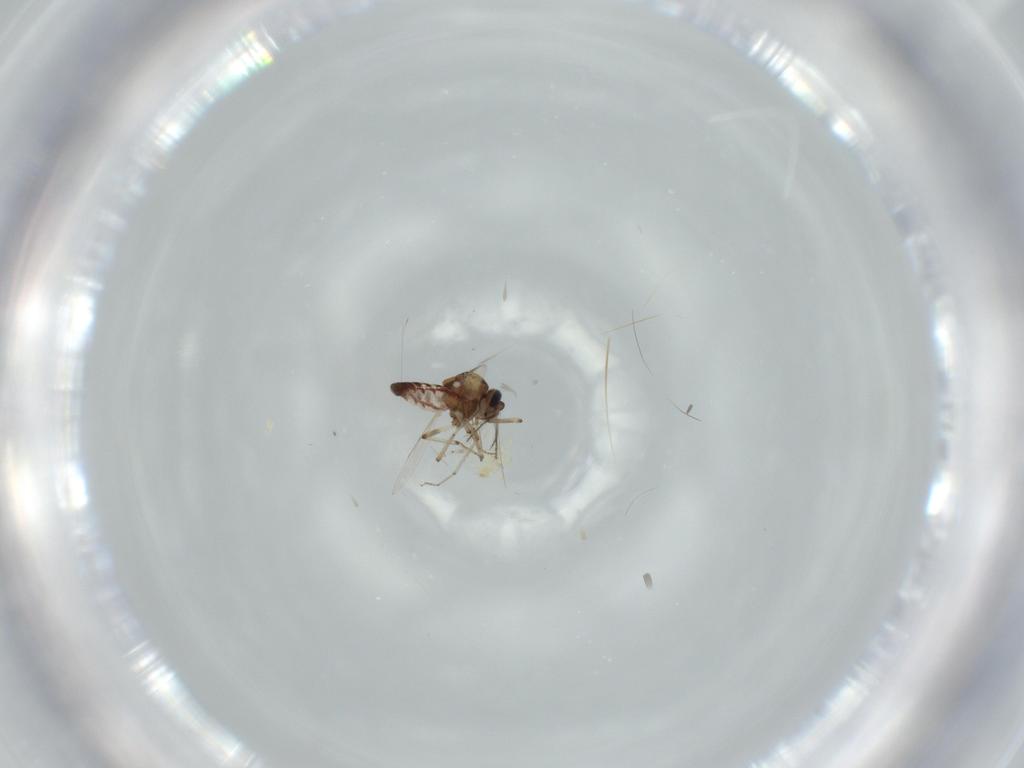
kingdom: Animalia
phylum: Arthropoda
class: Insecta
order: Diptera
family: Ceratopogonidae
